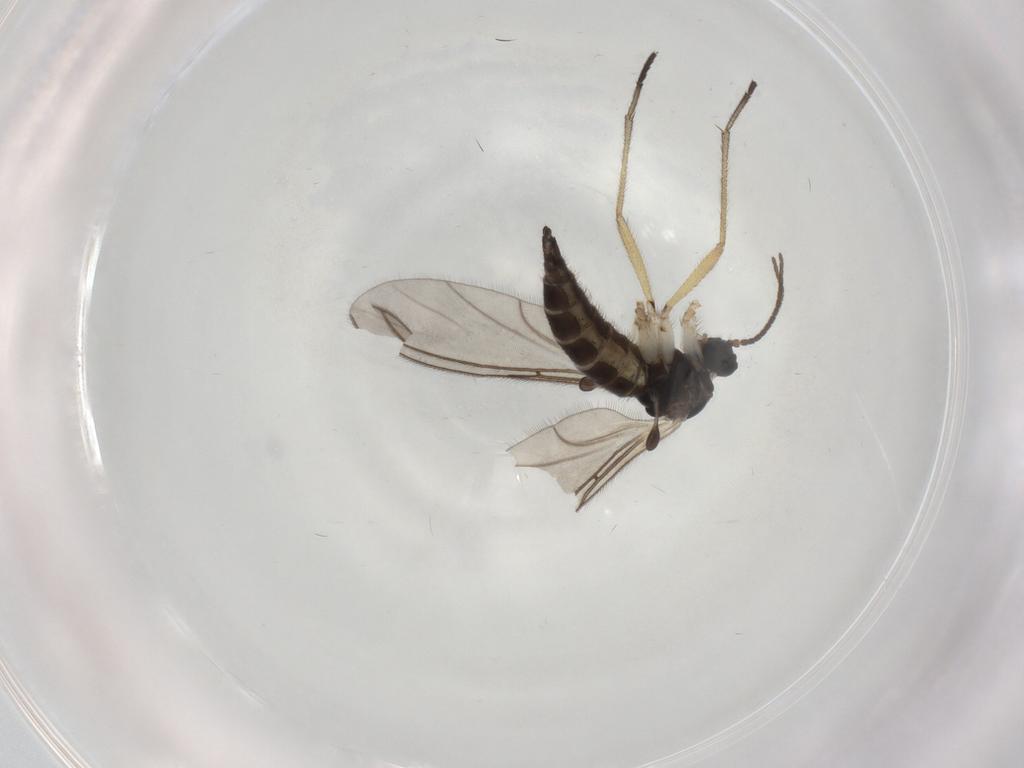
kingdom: Animalia
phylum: Arthropoda
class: Insecta
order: Diptera
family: Sciaridae
